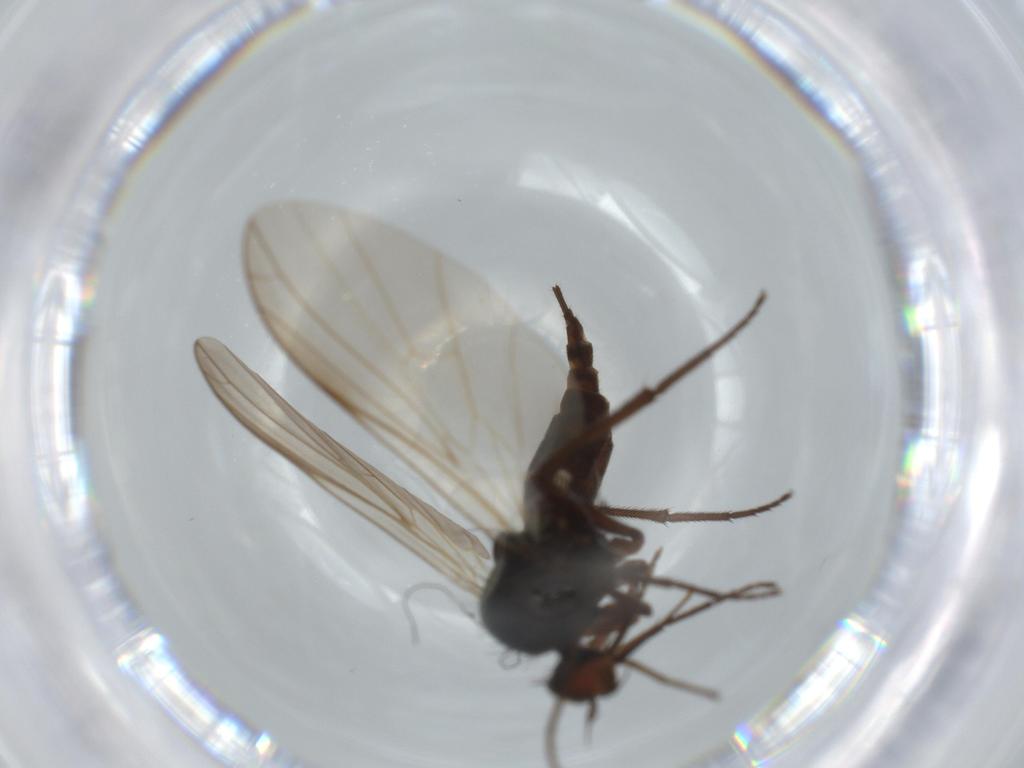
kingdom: Animalia
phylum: Arthropoda
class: Insecta
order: Diptera
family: Empididae
